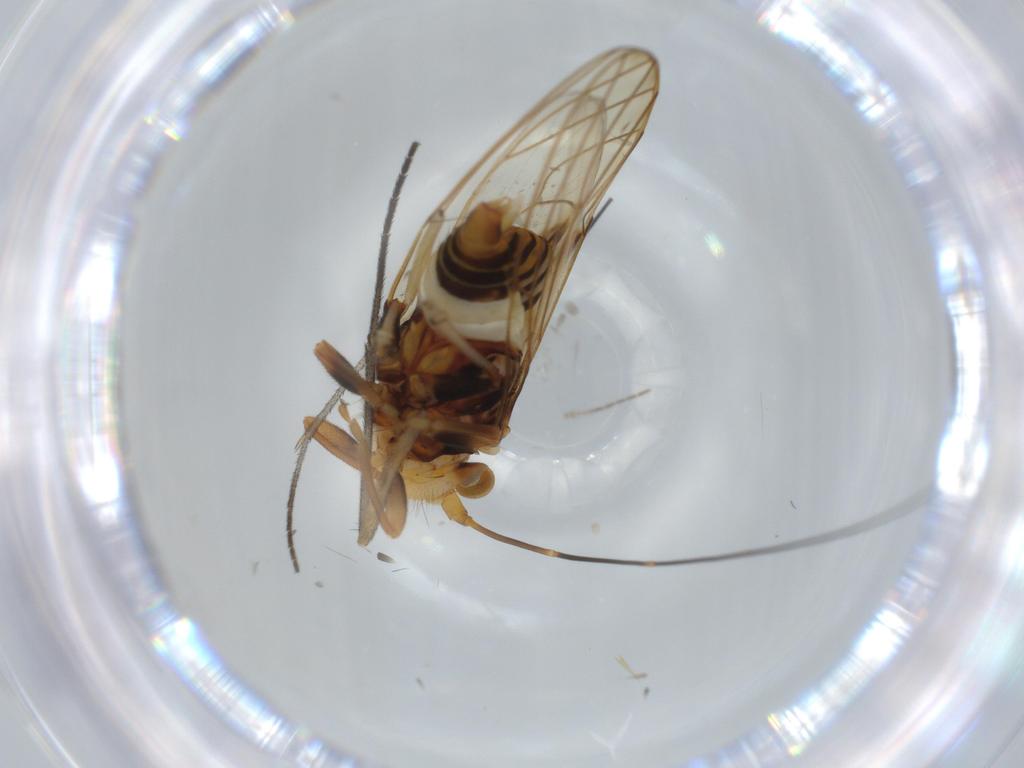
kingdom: Animalia
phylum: Arthropoda
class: Insecta
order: Hemiptera
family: Psyllidae
